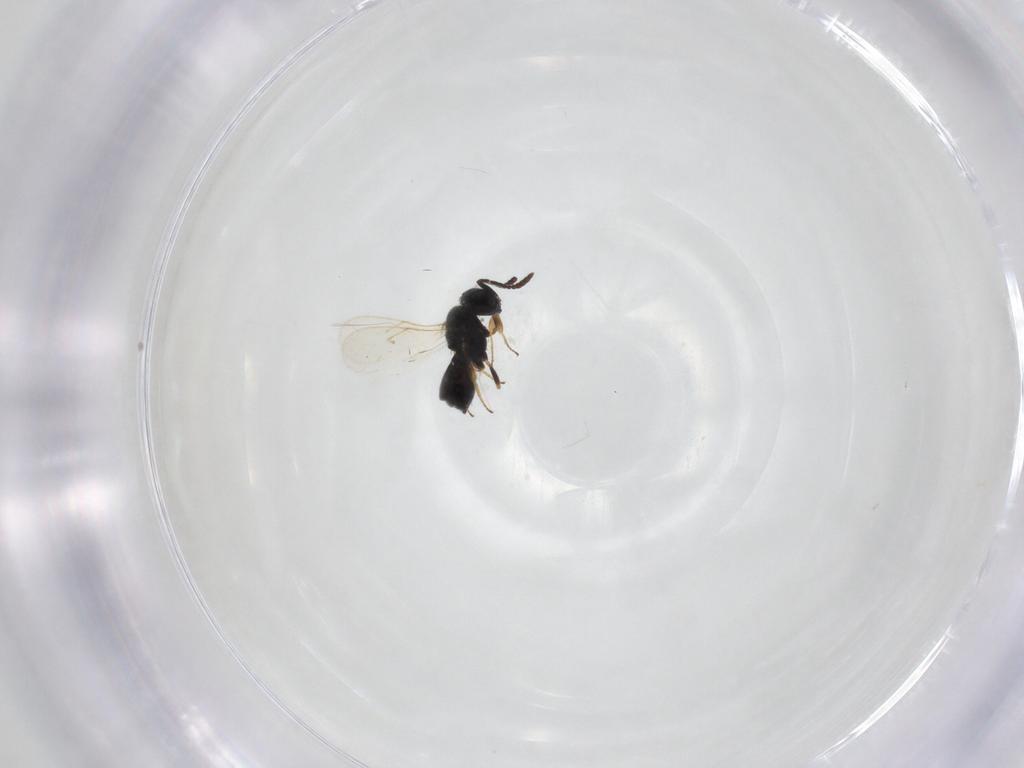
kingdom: Animalia
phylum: Arthropoda
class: Insecta
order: Hymenoptera
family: Scelionidae
